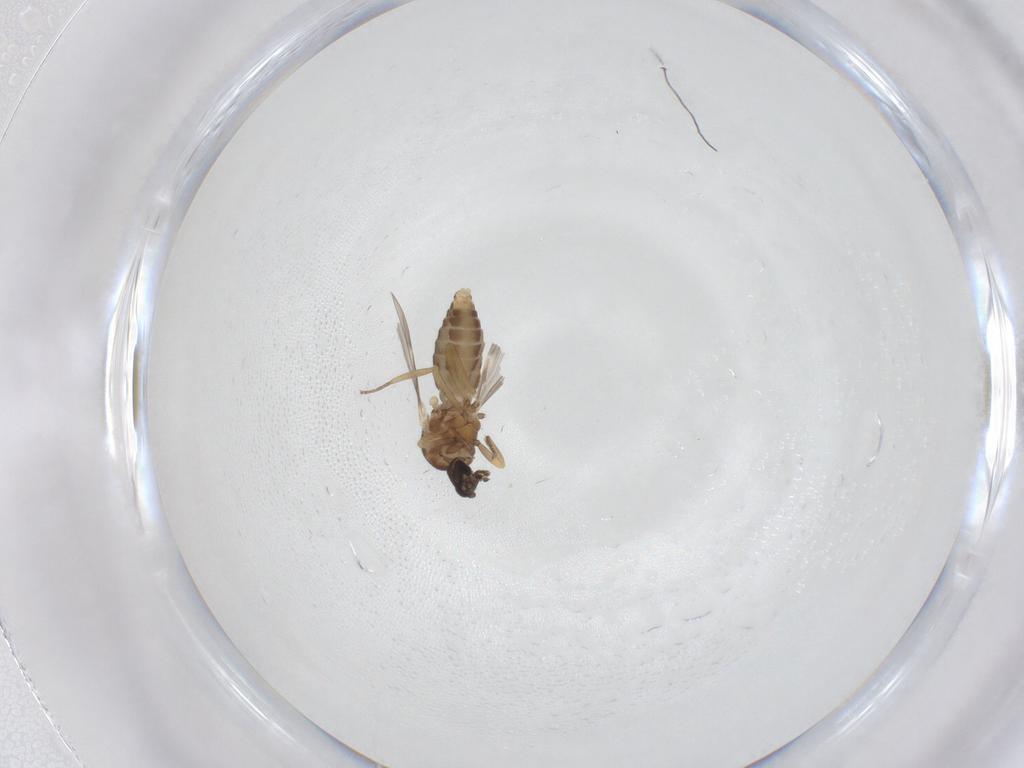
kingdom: Animalia
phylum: Arthropoda
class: Insecta
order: Diptera
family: Ceratopogonidae
